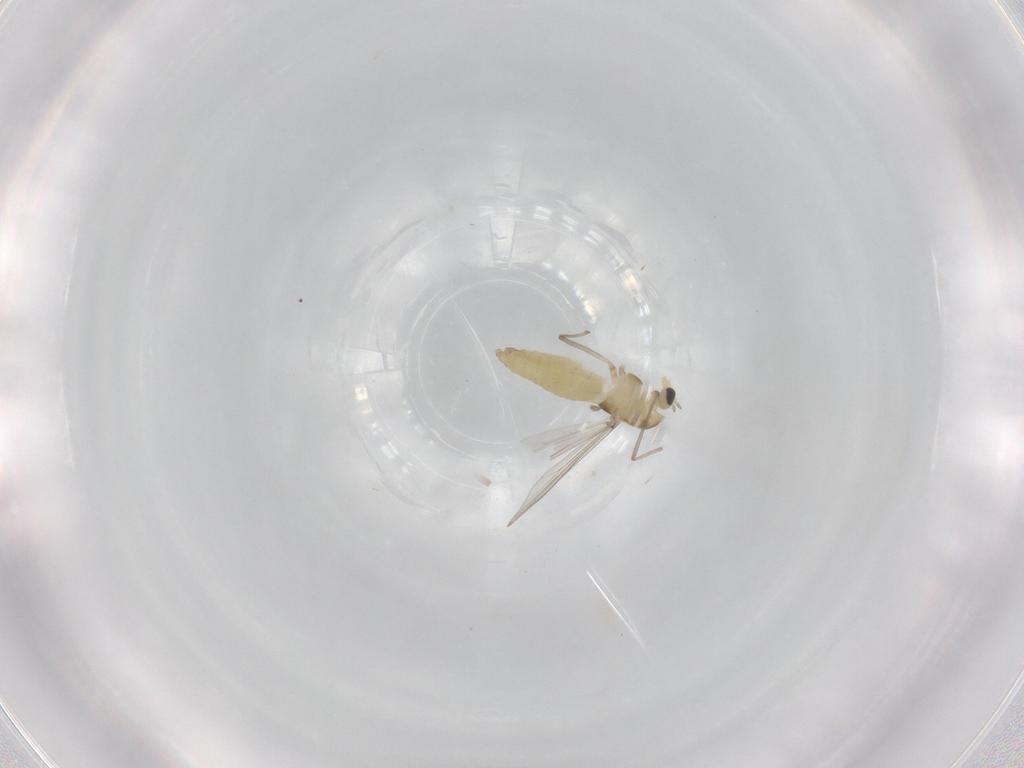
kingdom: Animalia
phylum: Arthropoda
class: Insecta
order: Diptera
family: Chironomidae
